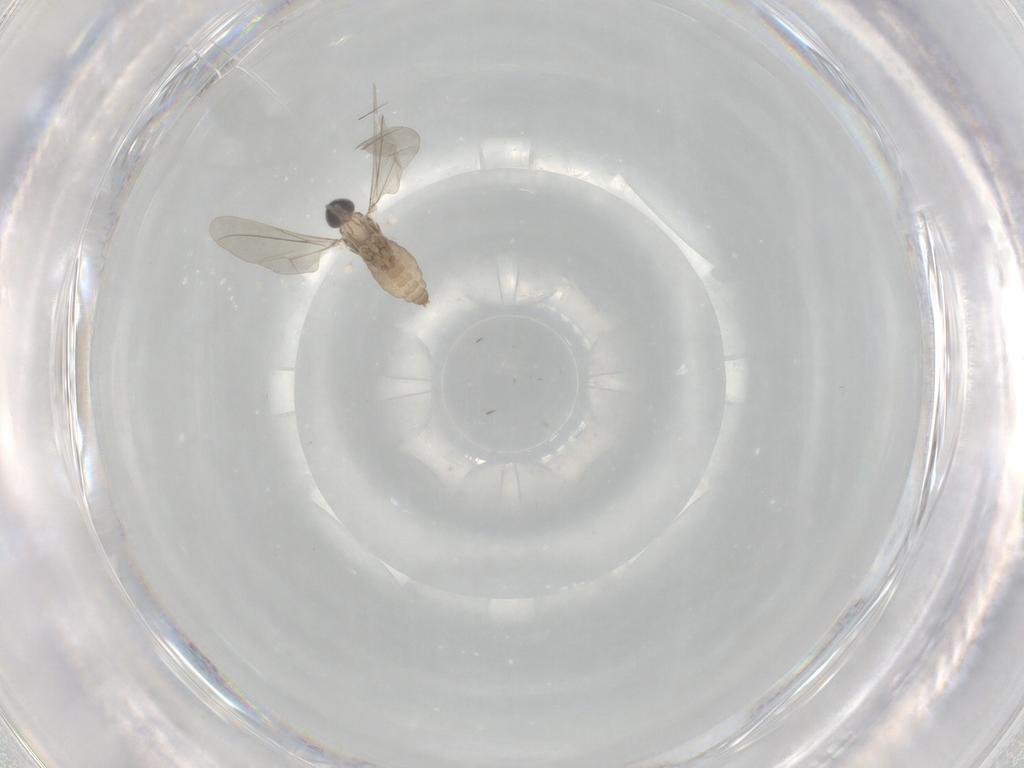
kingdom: Animalia
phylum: Arthropoda
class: Insecta
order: Diptera
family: Cecidomyiidae
